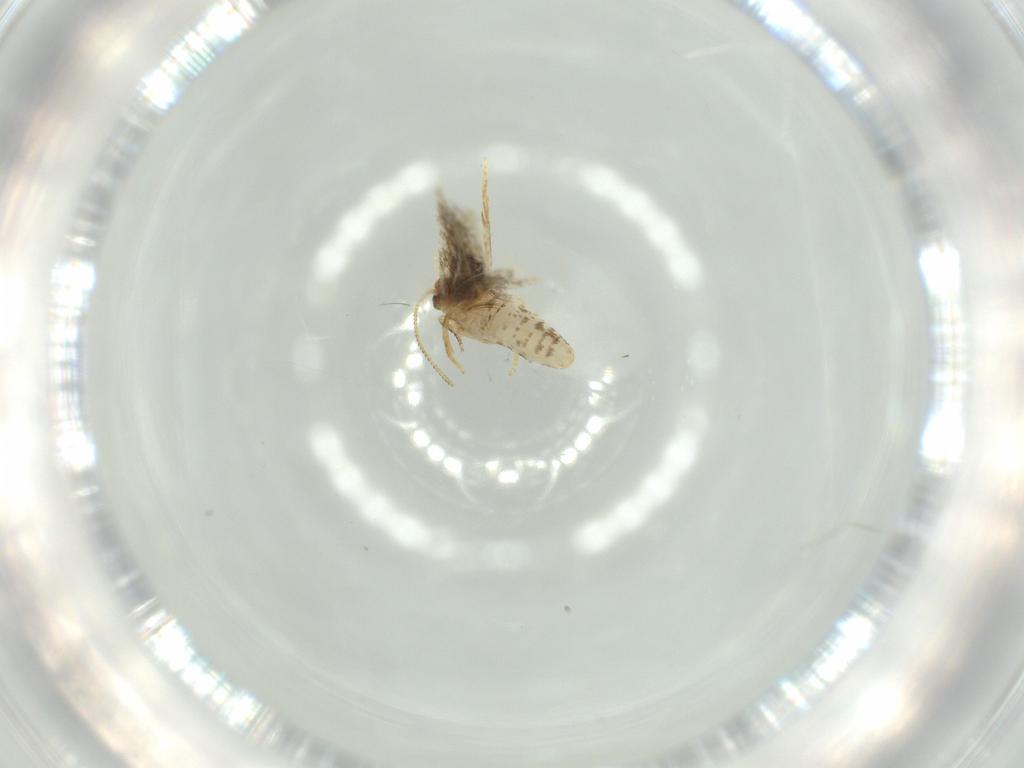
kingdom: Animalia
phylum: Arthropoda
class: Insecta
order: Lepidoptera
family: Nepticulidae
